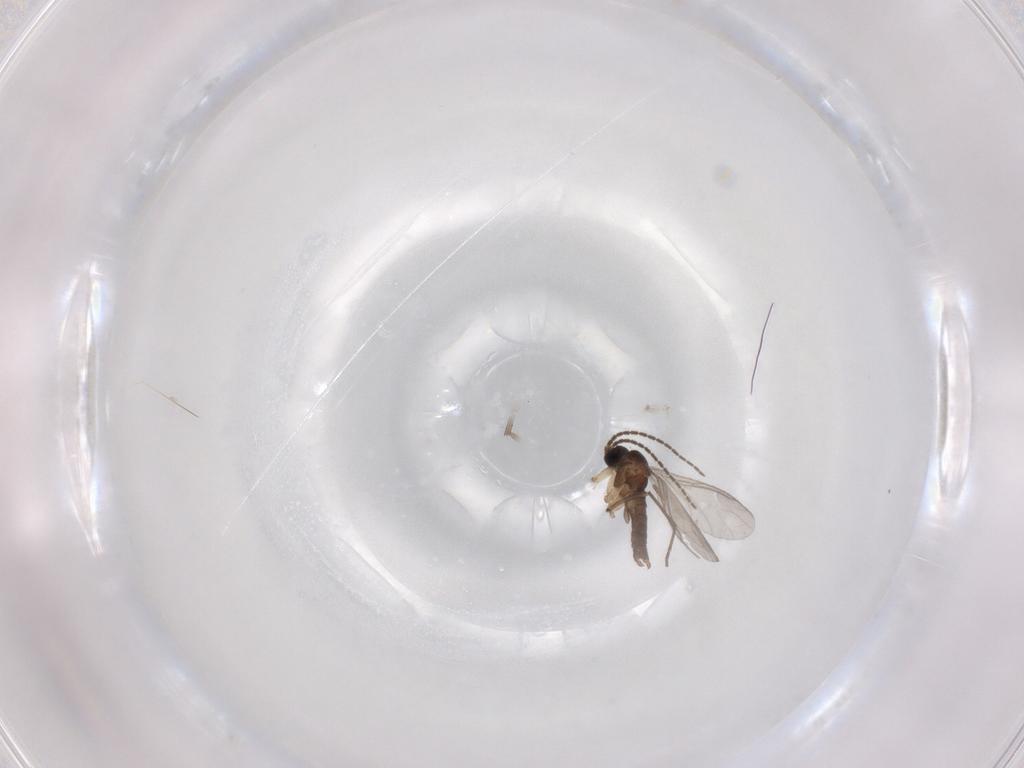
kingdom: Animalia
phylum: Arthropoda
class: Insecta
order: Diptera
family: Sciaridae
